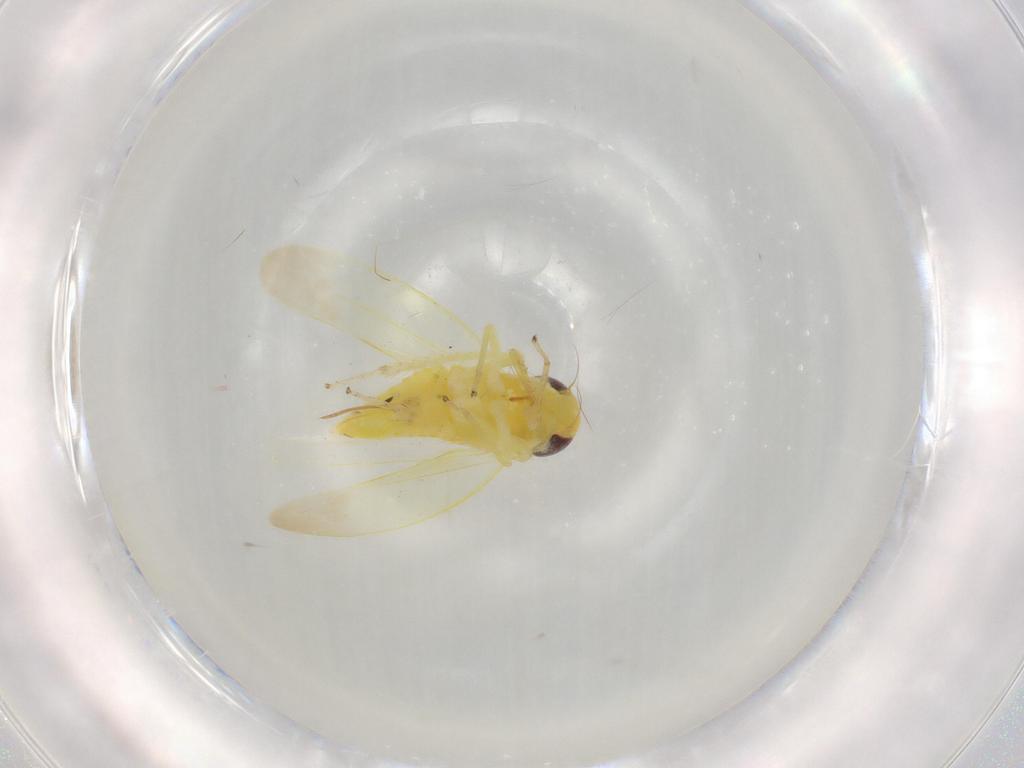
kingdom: Animalia
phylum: Arthropoda
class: Insecta
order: Hemiptera
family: Cicadellidae
